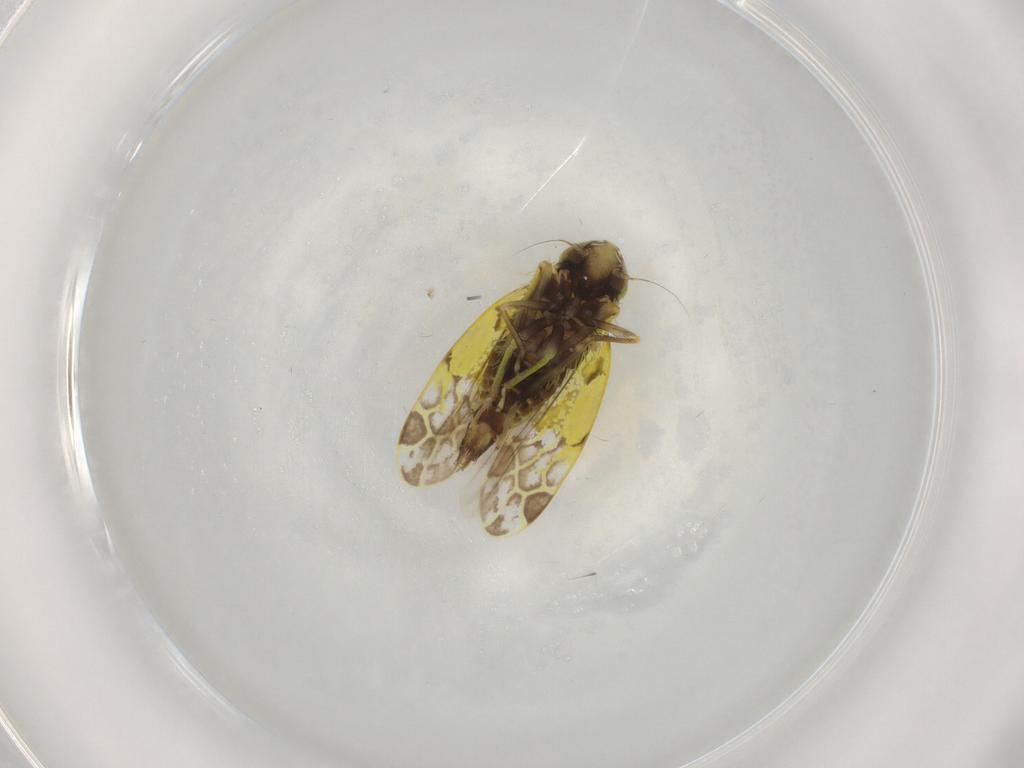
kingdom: Animalia
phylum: Arthropoda
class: Insecta
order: Hemiptera
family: Cicadellidae
